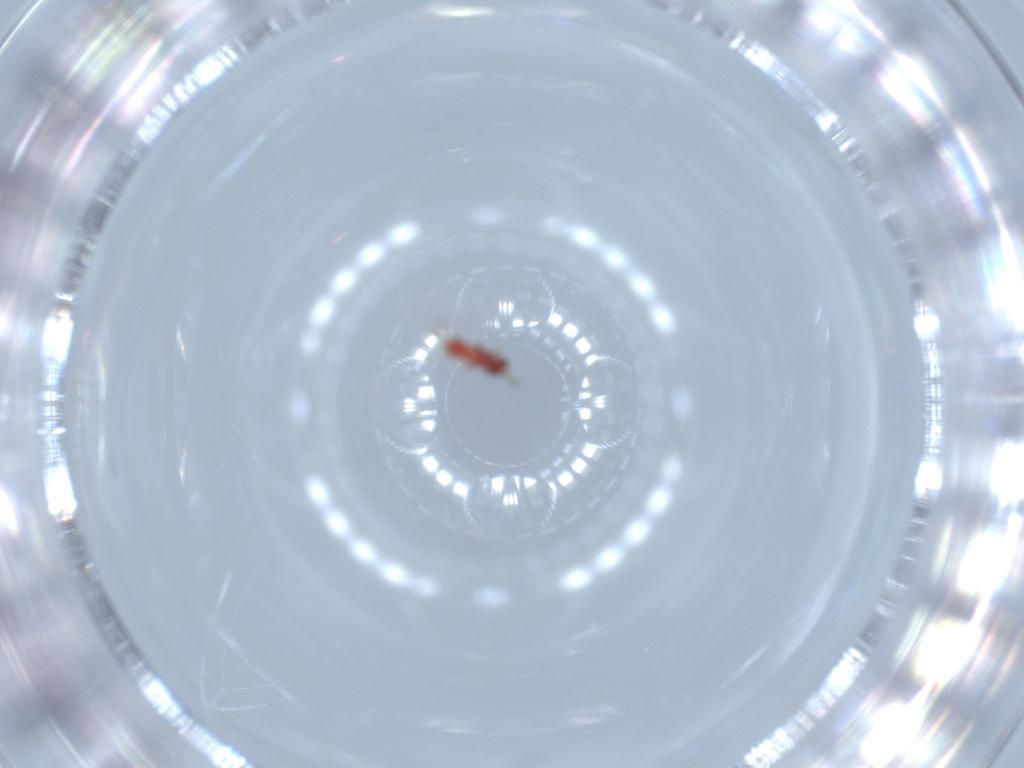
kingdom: Animalia
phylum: Arthropoda
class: Insecta
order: Hymenoptera
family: Trichogrammatidae
